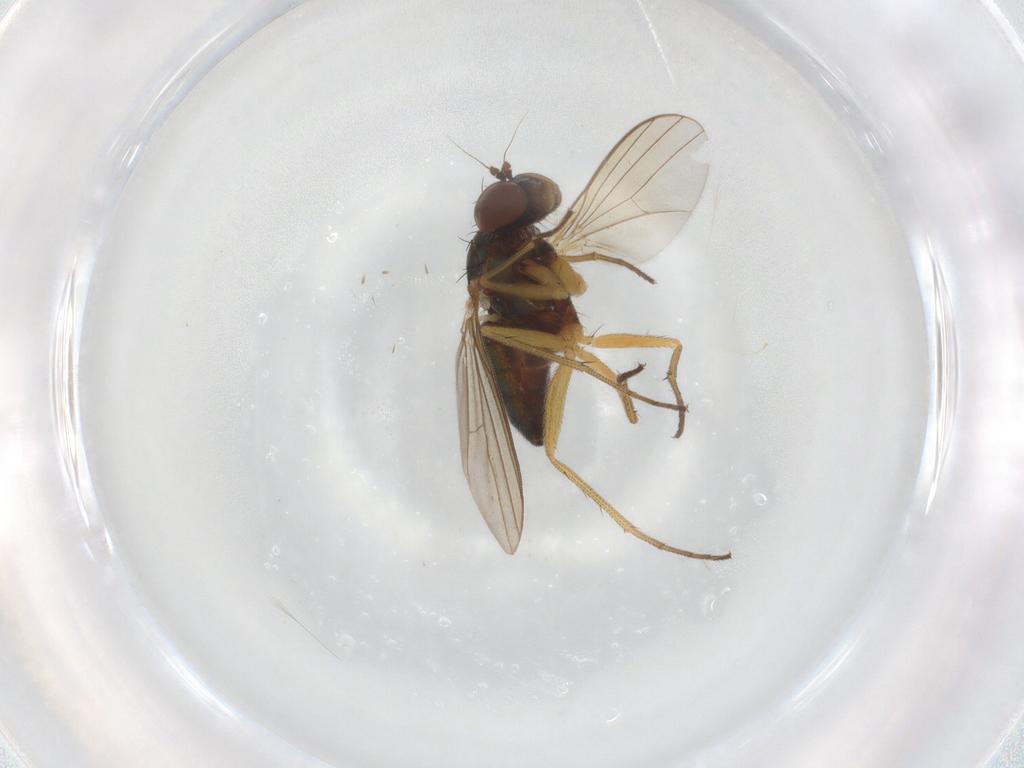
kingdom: Animalia
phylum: Arthropoda
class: Insecta
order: Diptera
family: Dolichopodidae
